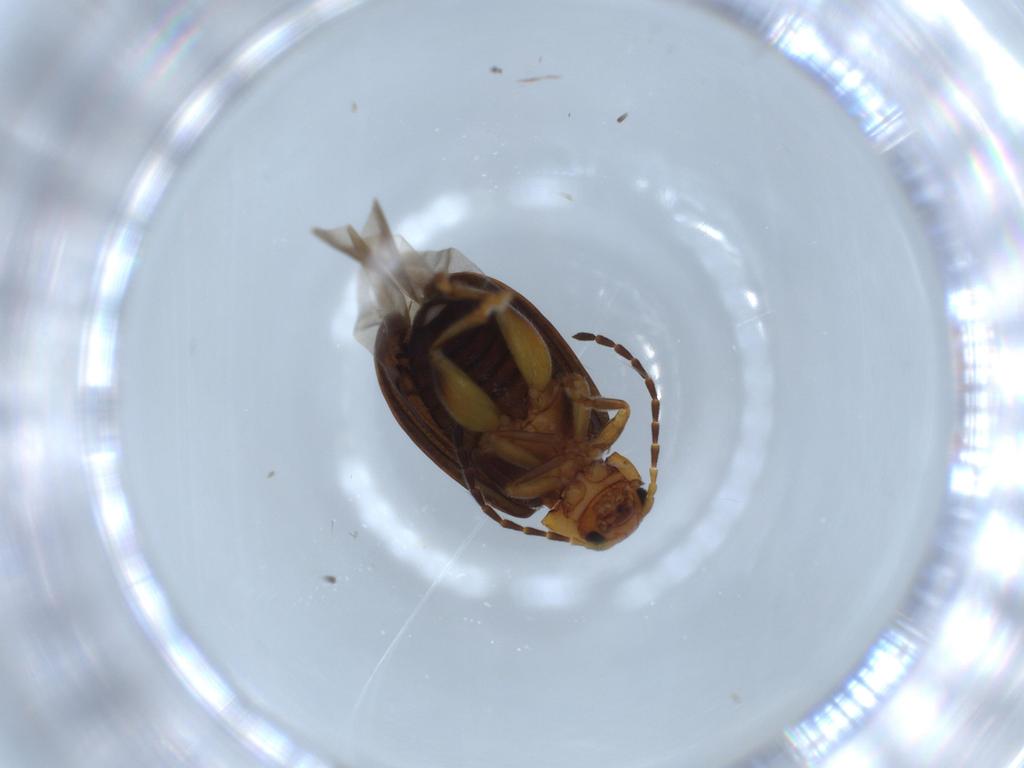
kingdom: Animalia
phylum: Arthropoda
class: Insecta
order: Coleoptera
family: Chrysomelidae
